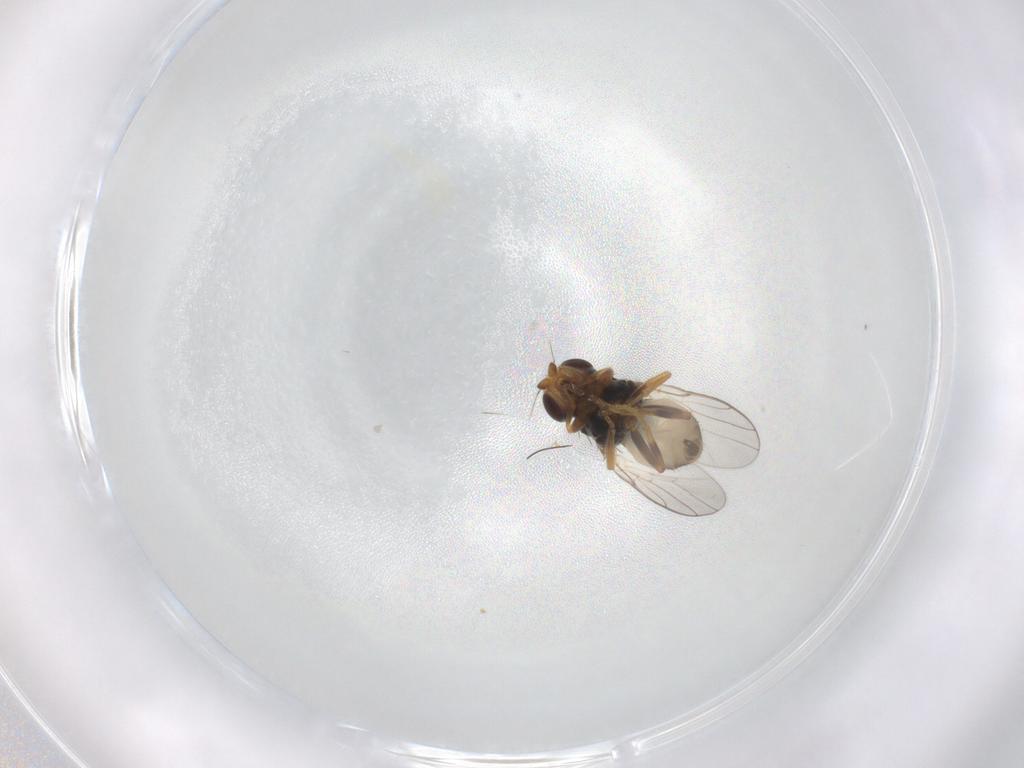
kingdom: Animalia
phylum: Arthropoda
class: Insecta
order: Diptera
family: Chloropidae
